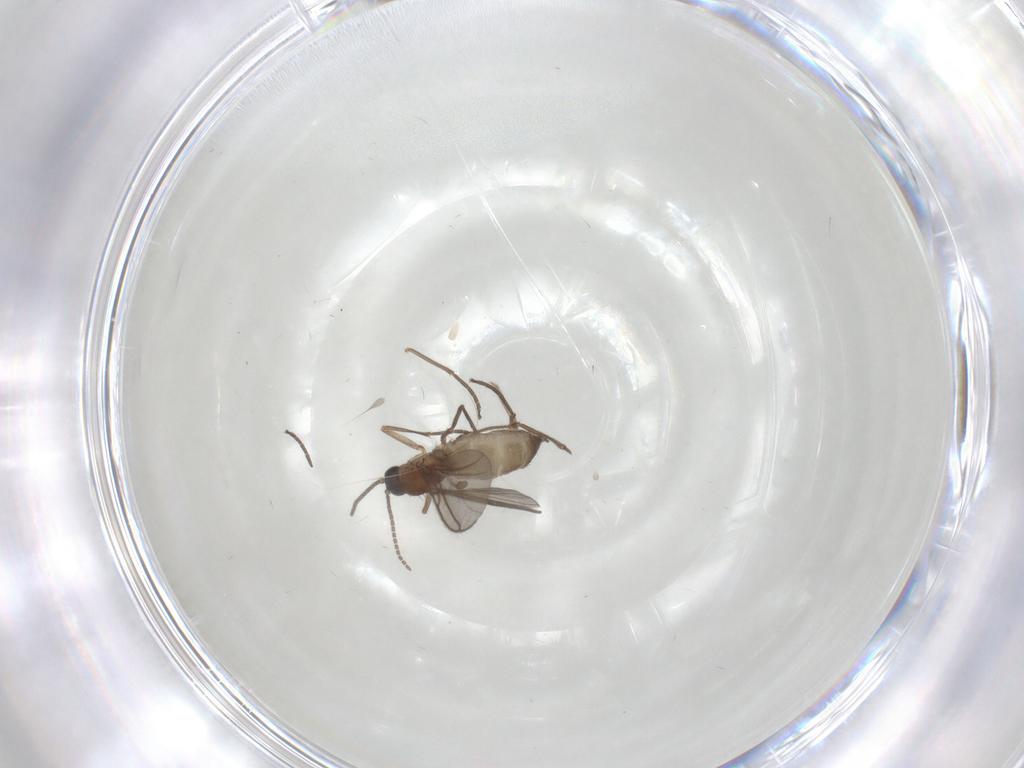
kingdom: Animalia
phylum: Arthropoda
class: Insecta
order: Diptera
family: Sciaridae
